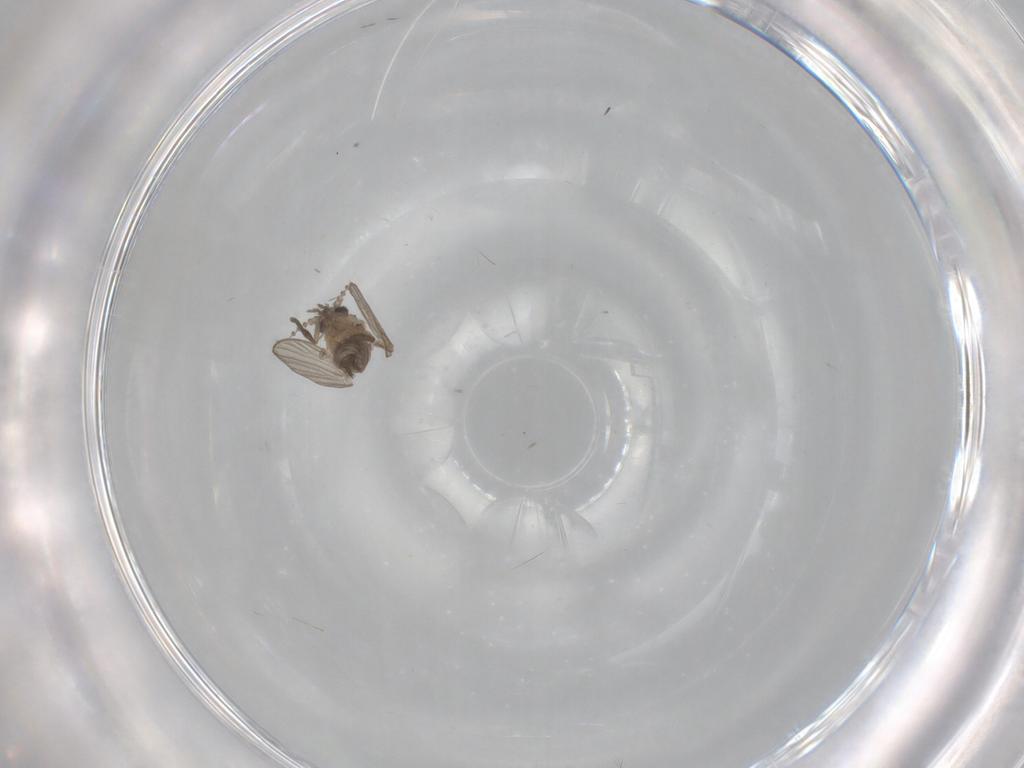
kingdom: Animalia
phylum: Arthropoda
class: Insecta
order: Diptera
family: Psychodidae
